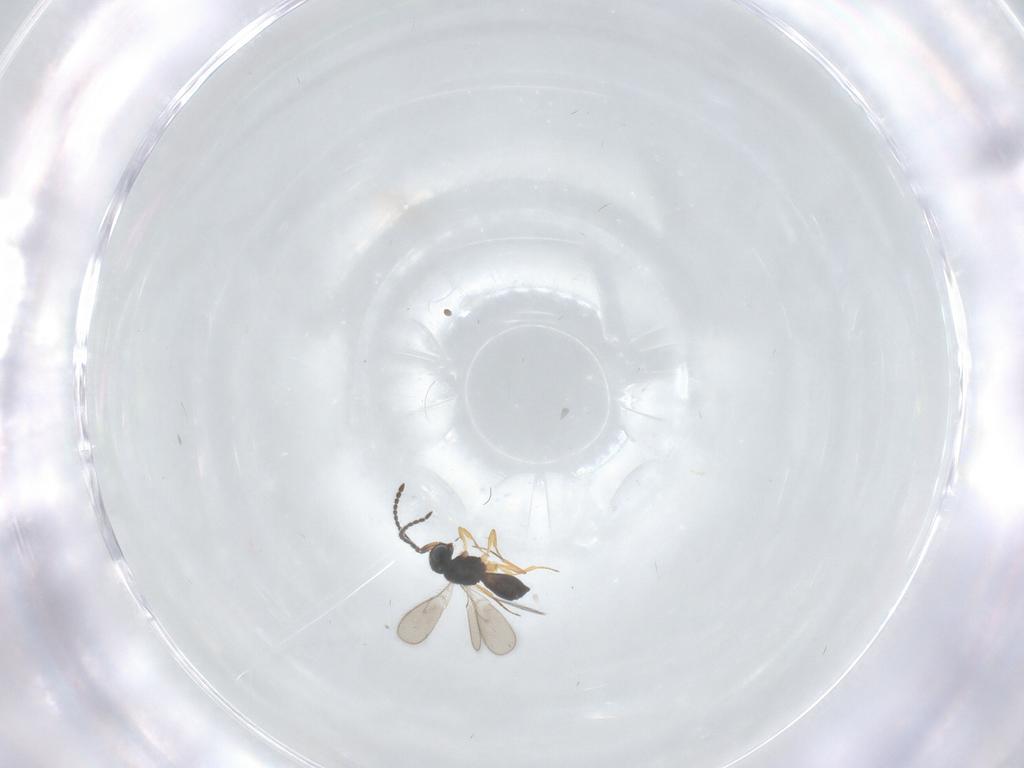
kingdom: Animalia
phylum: Arthropoda
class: Insecta
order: Hymenoptera
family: Scelionidae
